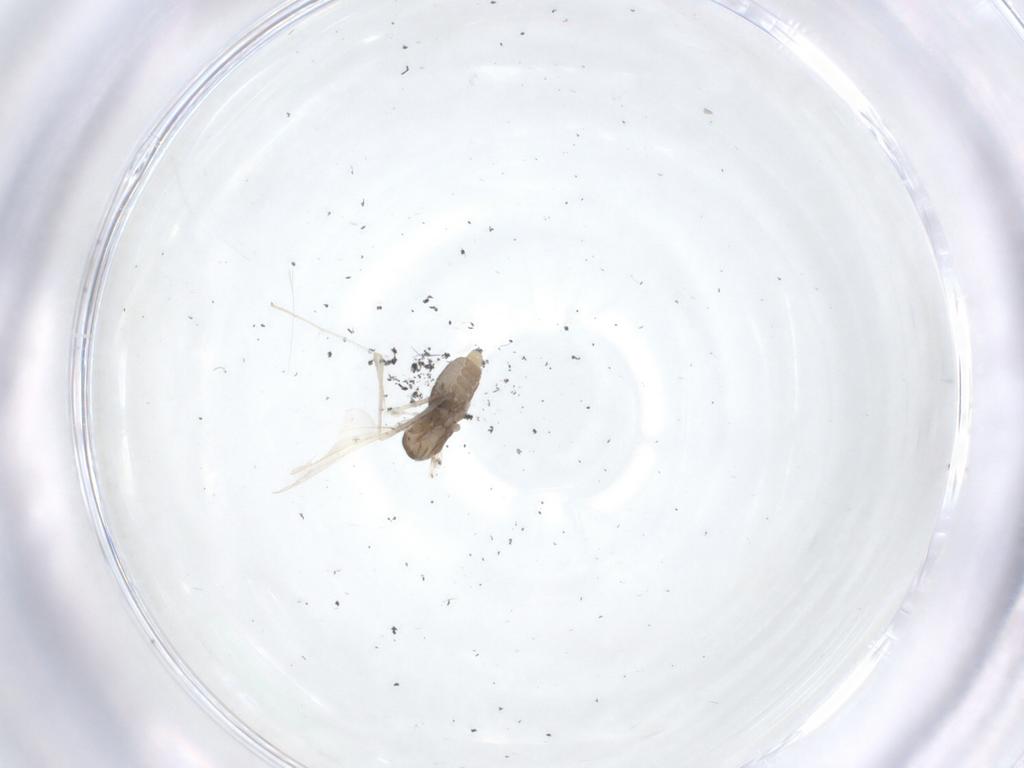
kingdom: Animalia
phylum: Arthropoda
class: Insecta
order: Diptera
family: Cecidomyiidae
